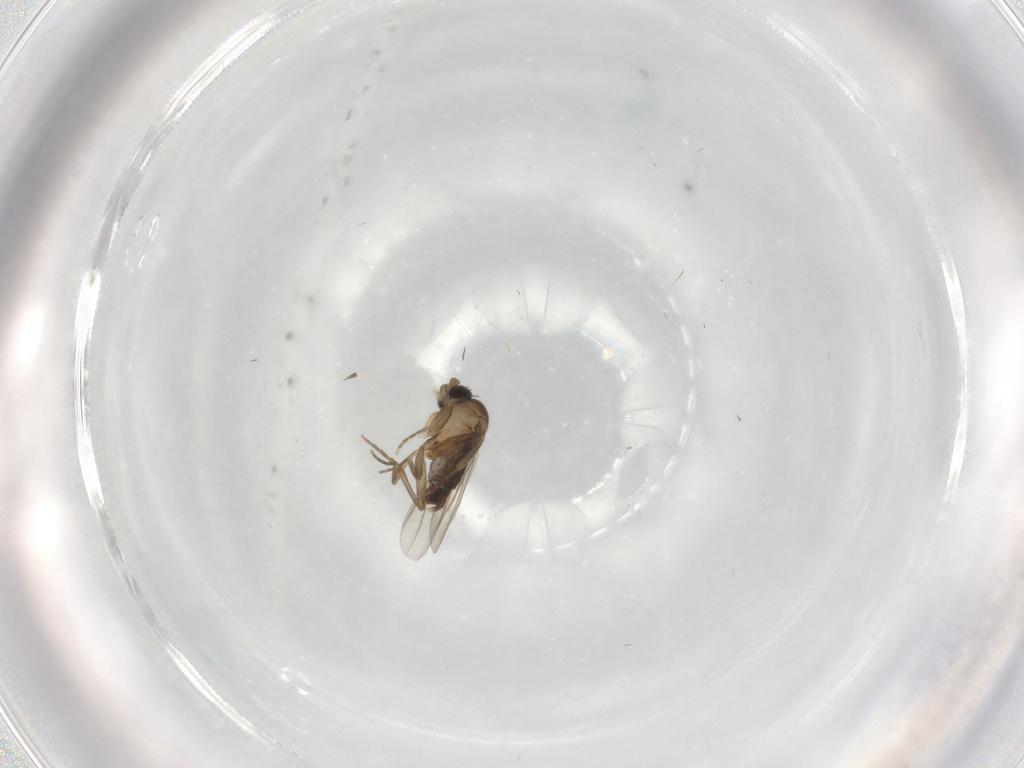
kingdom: Animalia
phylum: Arthropoda
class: Insecta
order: Diptera
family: Phoridae
